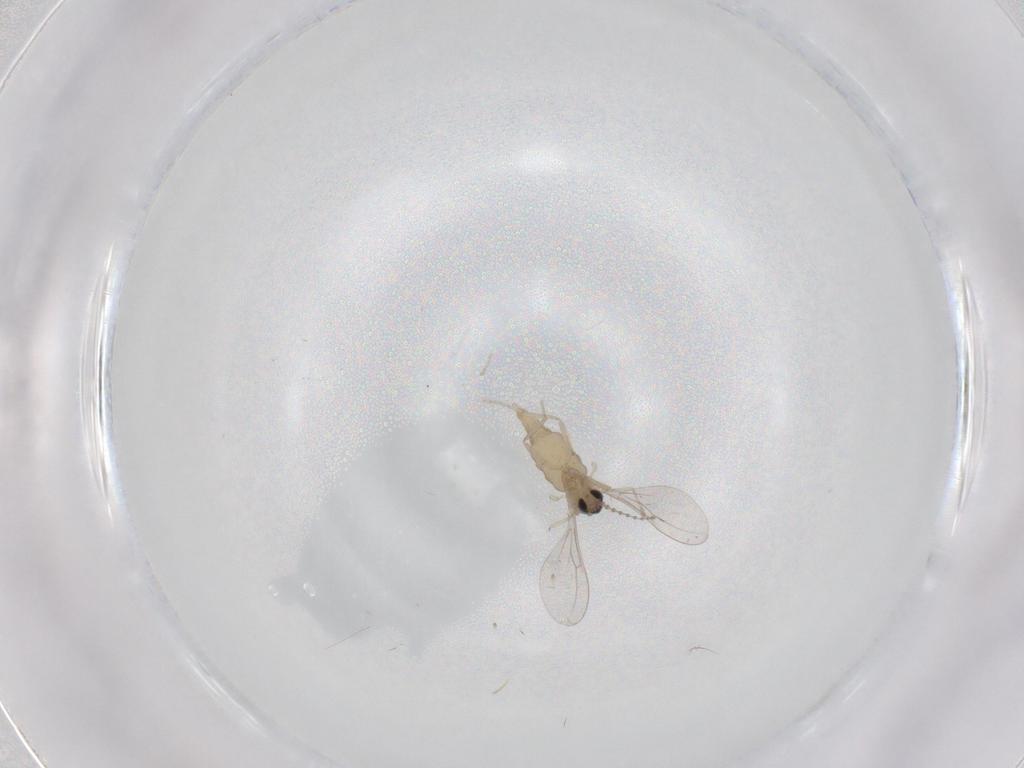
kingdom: Animalia
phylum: Arthropoda
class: Insecta
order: Diptera
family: Cecidomyiidae
